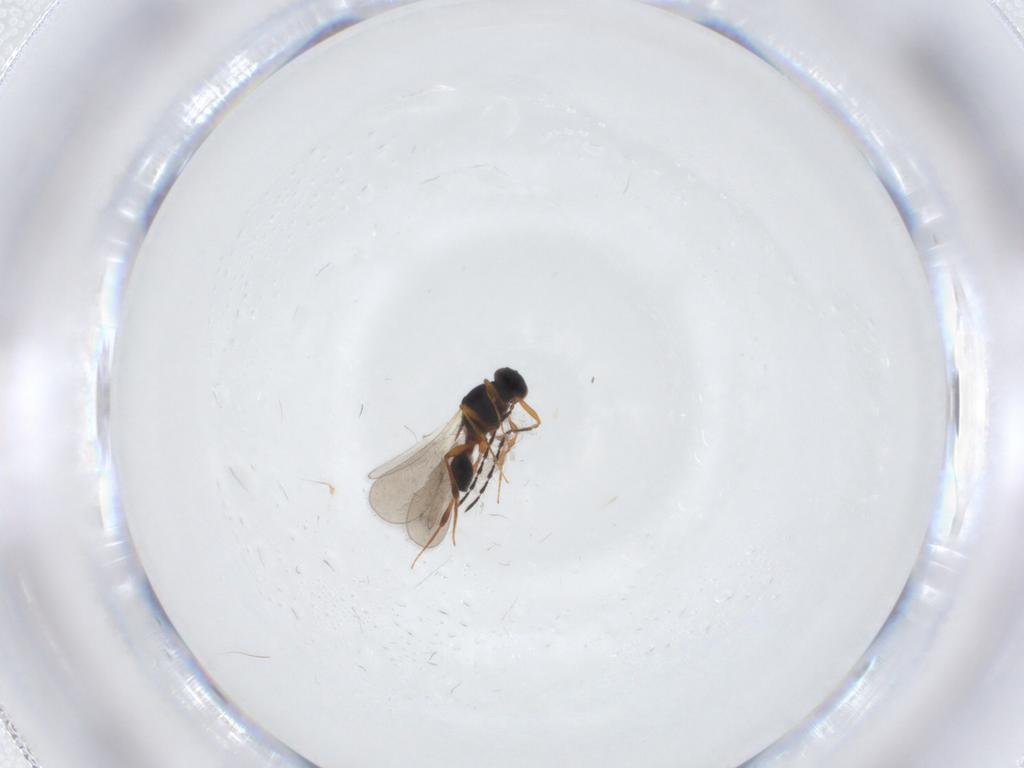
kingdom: Animalia
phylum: Arthropoda
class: Insecta
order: Hymenoptera
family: Platygastridae
